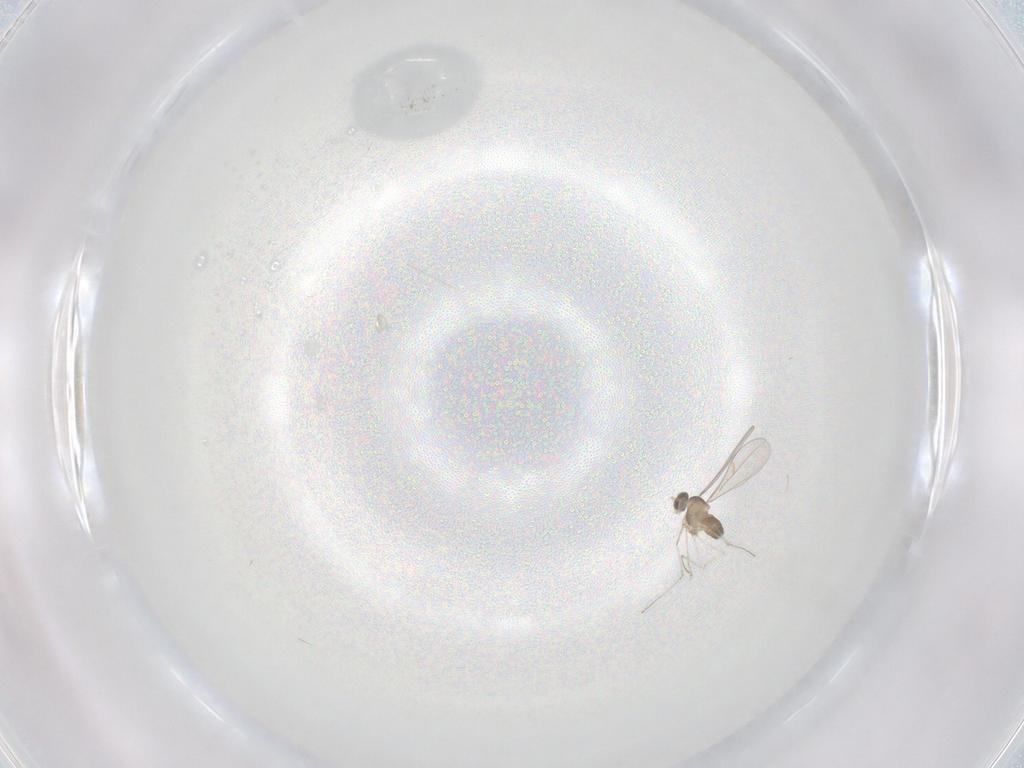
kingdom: Animalia
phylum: Arthropoda
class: Insecta
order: Diptera
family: Cecidomyiidae
